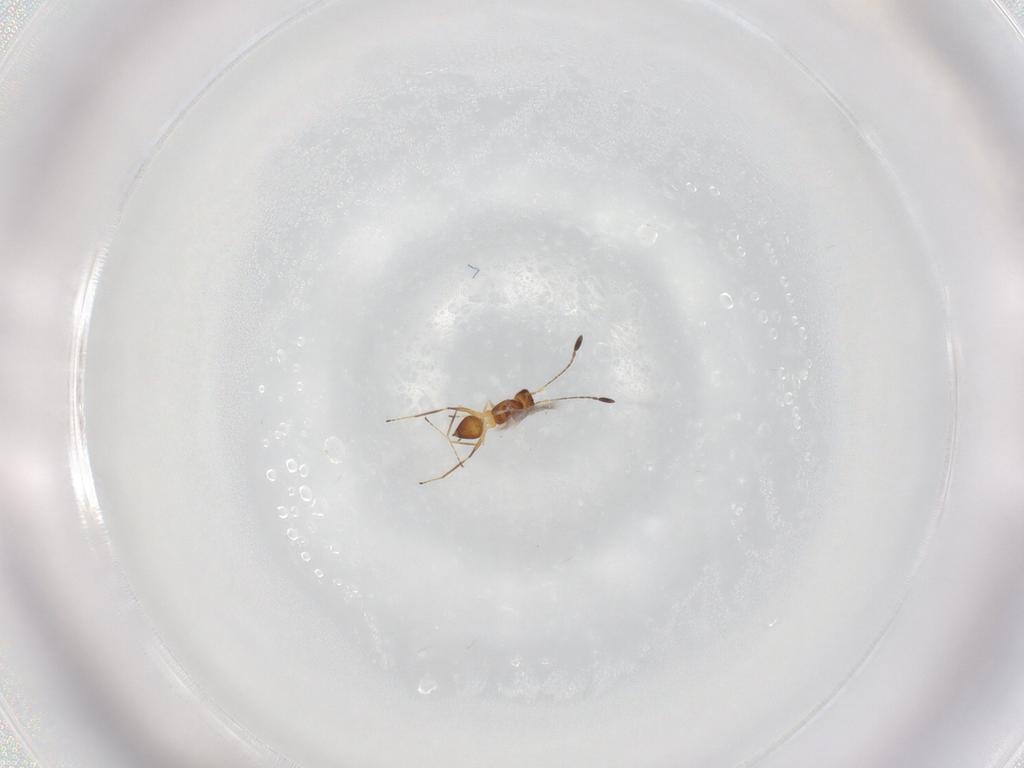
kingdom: Animalia
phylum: Arthropoda
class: Insecta
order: Hymenoptera
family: Mymaridae
